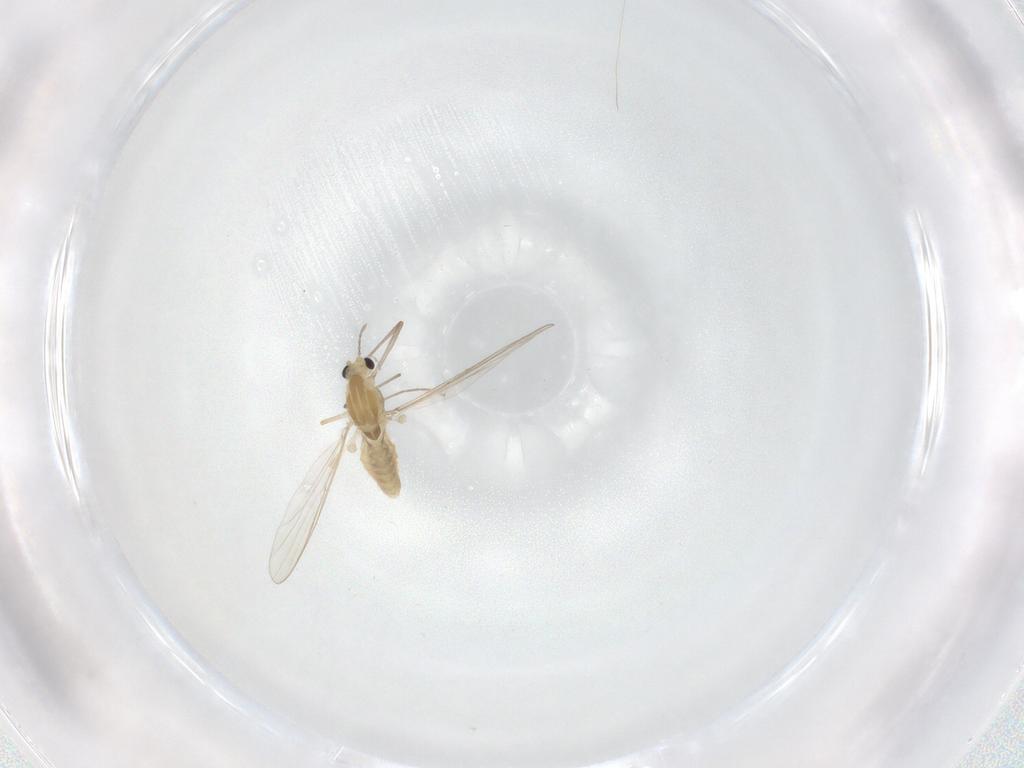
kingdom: Animalia
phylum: Arthropoda
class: Insecta
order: Diptera
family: Chironomidae
